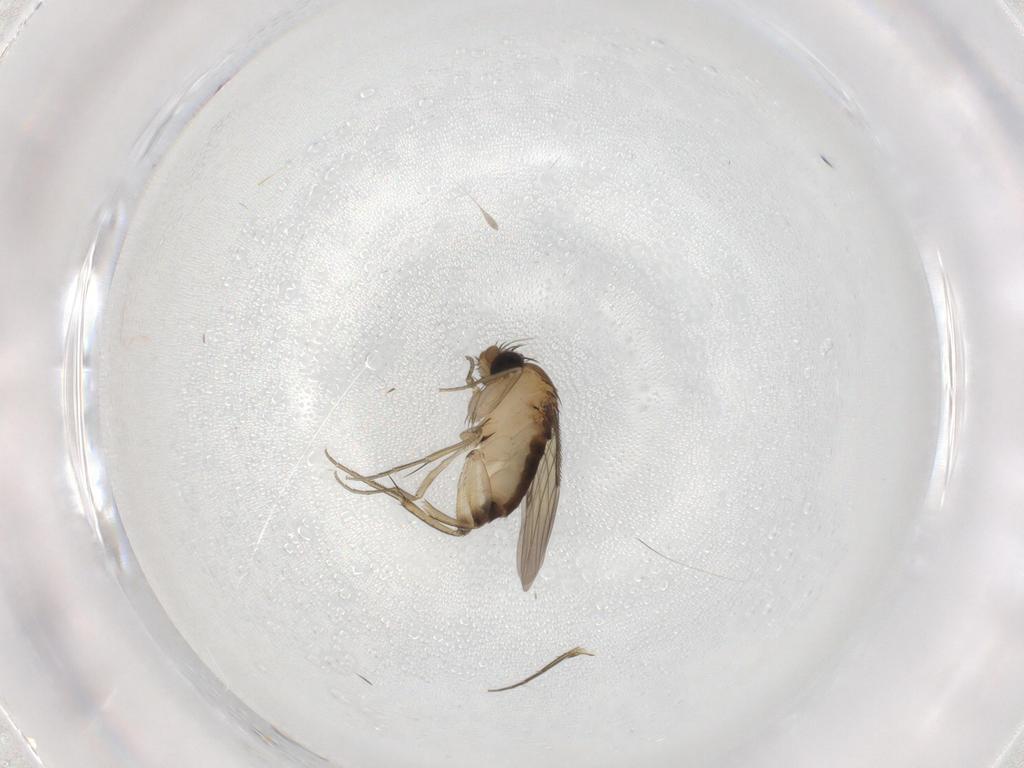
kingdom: Animalia
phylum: Arthropoda
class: Insecta
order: Diptera
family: Phoridae
